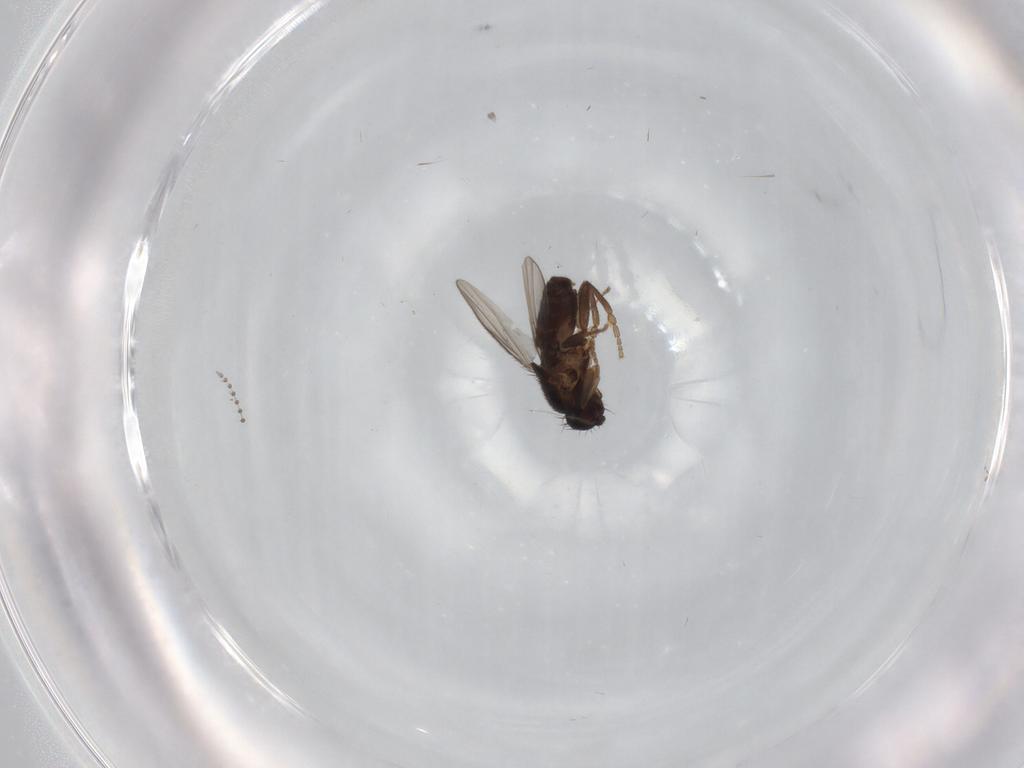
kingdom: Animalia
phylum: Arthropoda
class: Insecta
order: Diptera
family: Sphaeroceridae
